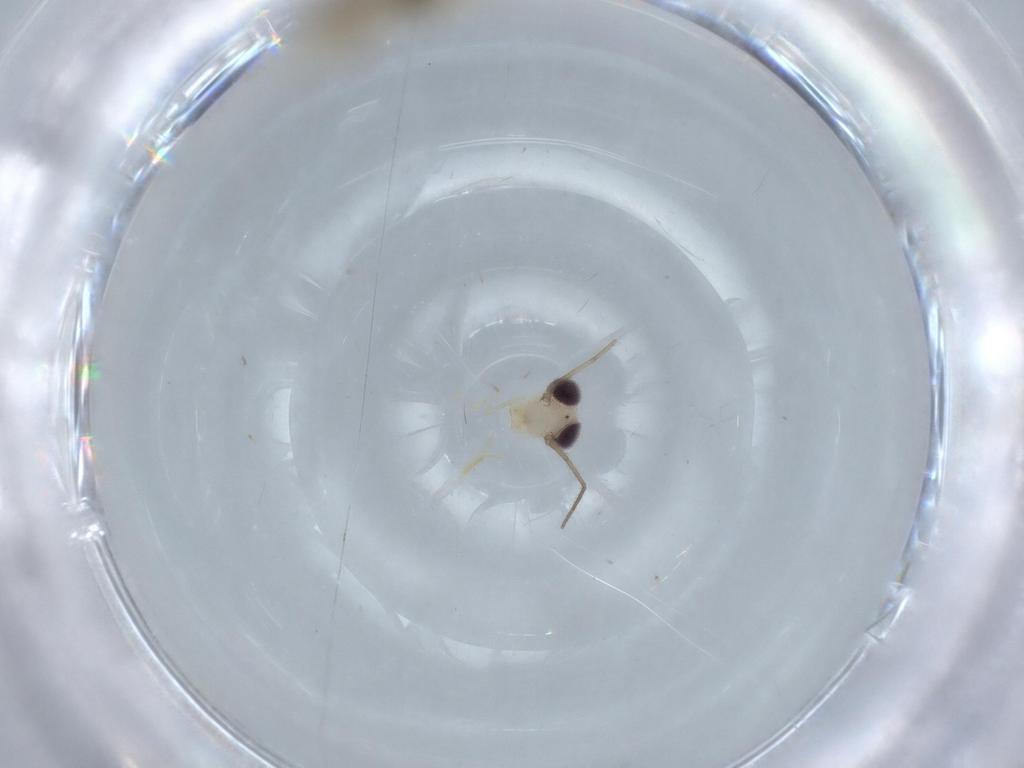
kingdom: Animalia
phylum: Arthropoda
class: Insecta
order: Psocodea
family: Caeciliusidae
